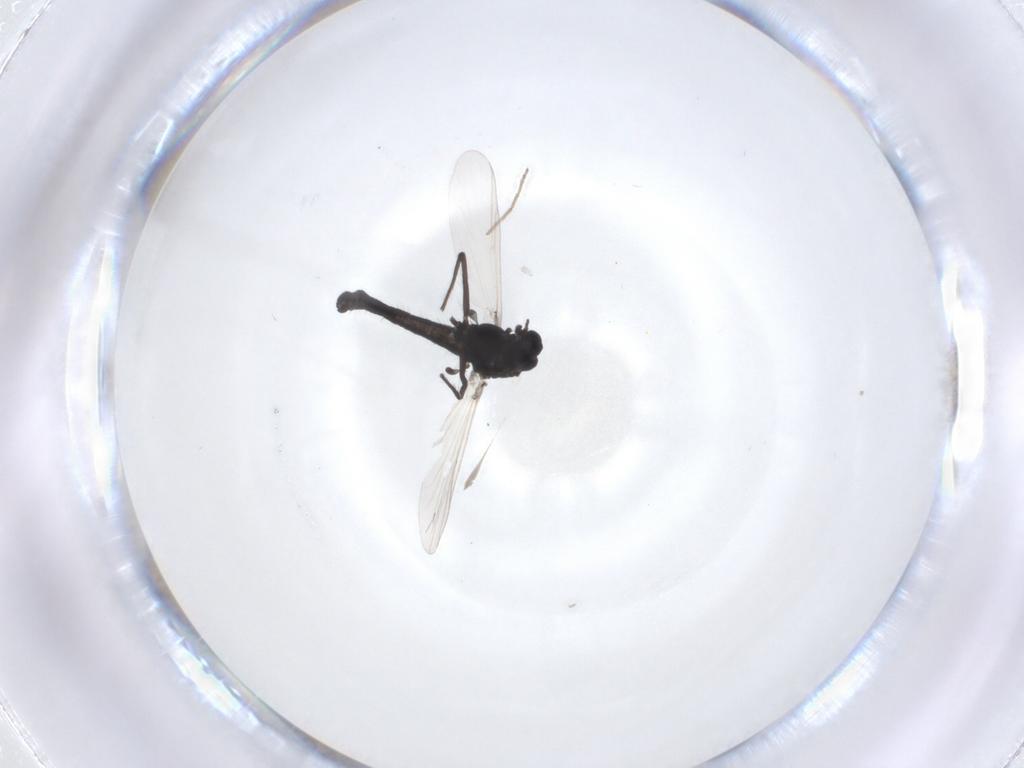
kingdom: Animalia
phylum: Arthropoda
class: Insecta
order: Diptera
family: Chironomidae
